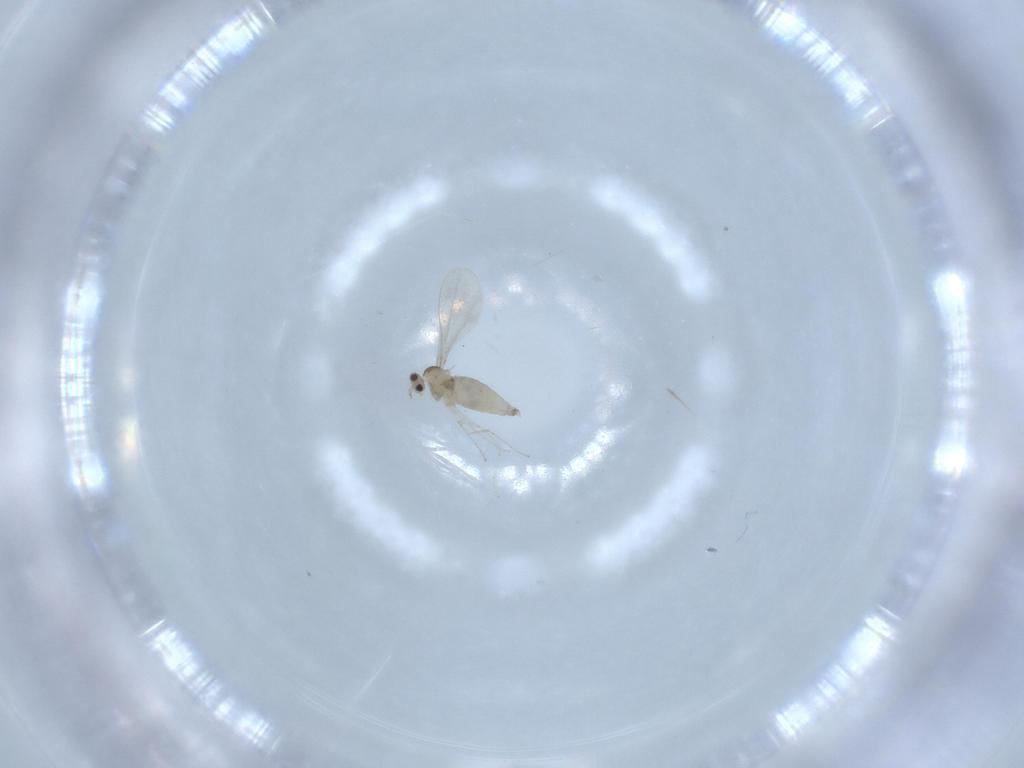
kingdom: Animalia
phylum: Arthropoda
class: Insecta
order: Diptera
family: Cecidomyiidae
